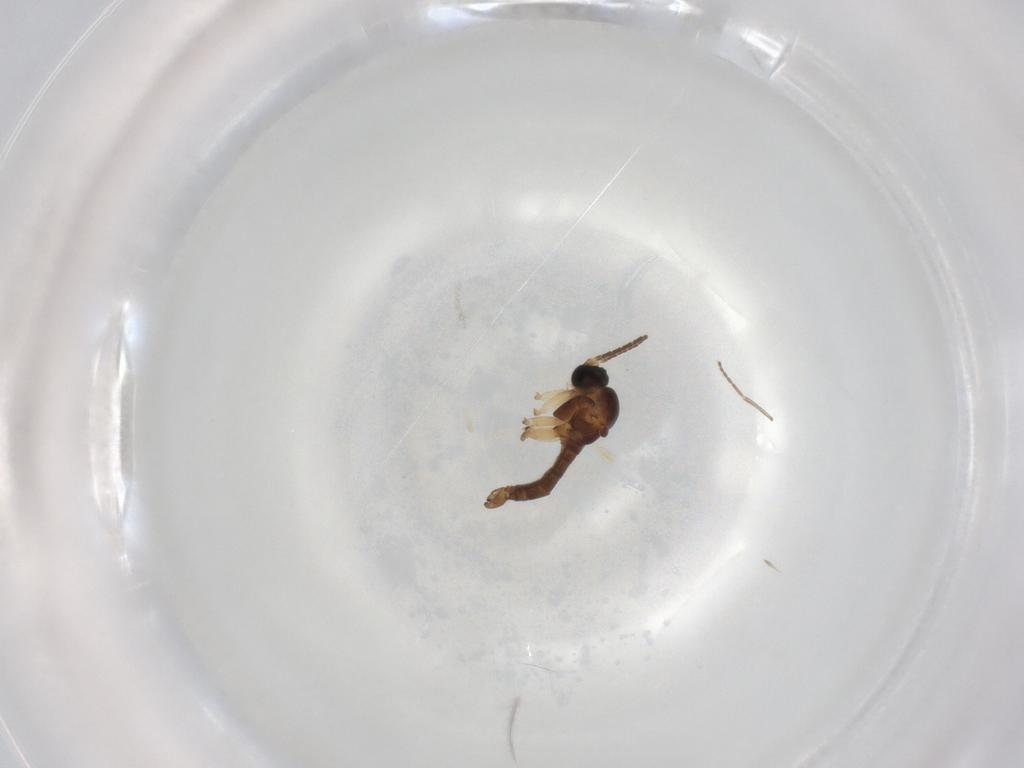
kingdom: Animalia
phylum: Arthropoda
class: Insecta
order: Diptera
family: Sciaridae
